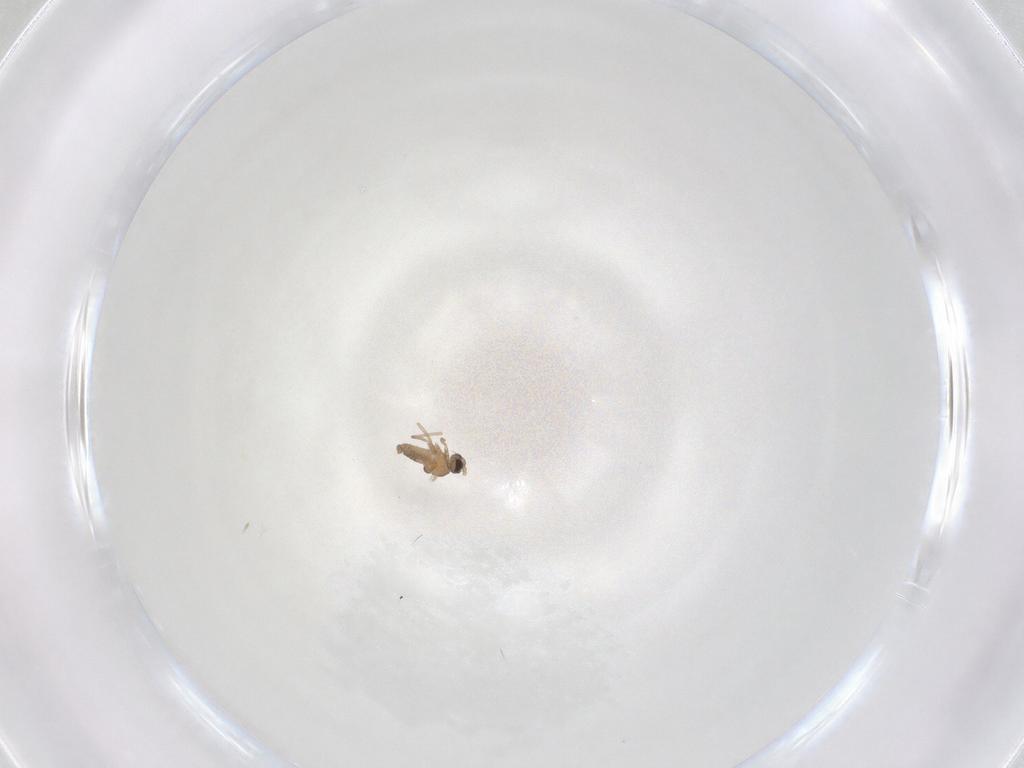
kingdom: Animalia
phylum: Arthropoda
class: Insecta
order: Diptera
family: Cecidomyiidae
